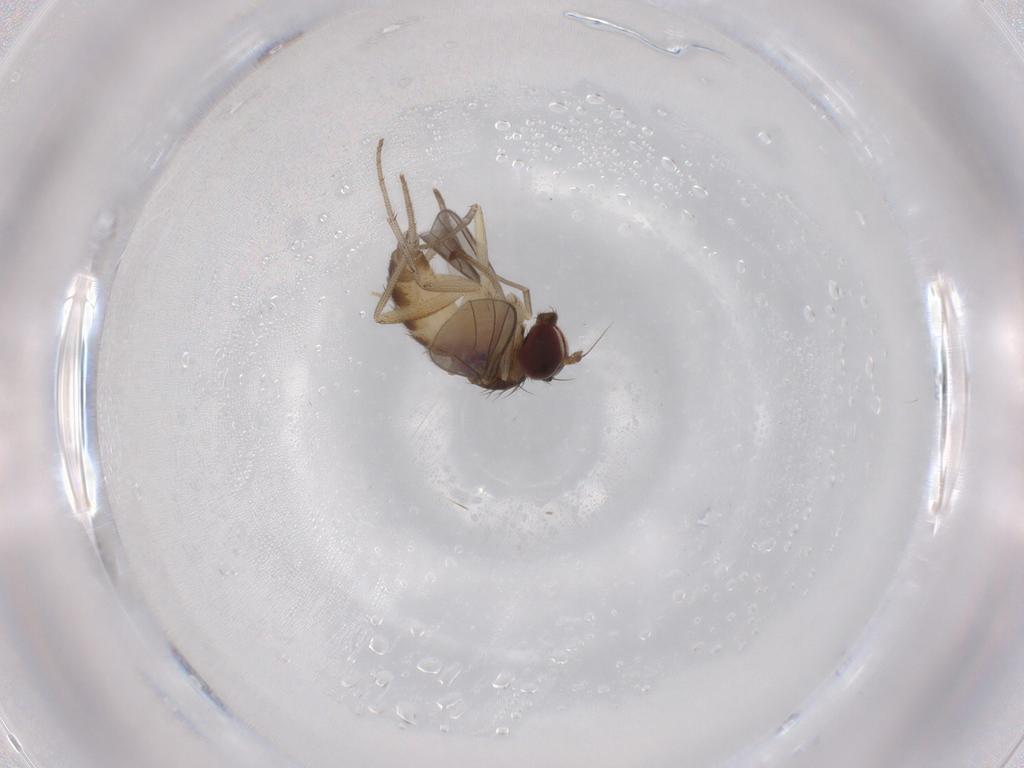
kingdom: Animalia
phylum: Arthropoda
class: Insecta
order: Diptera
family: Dolichopodidae
